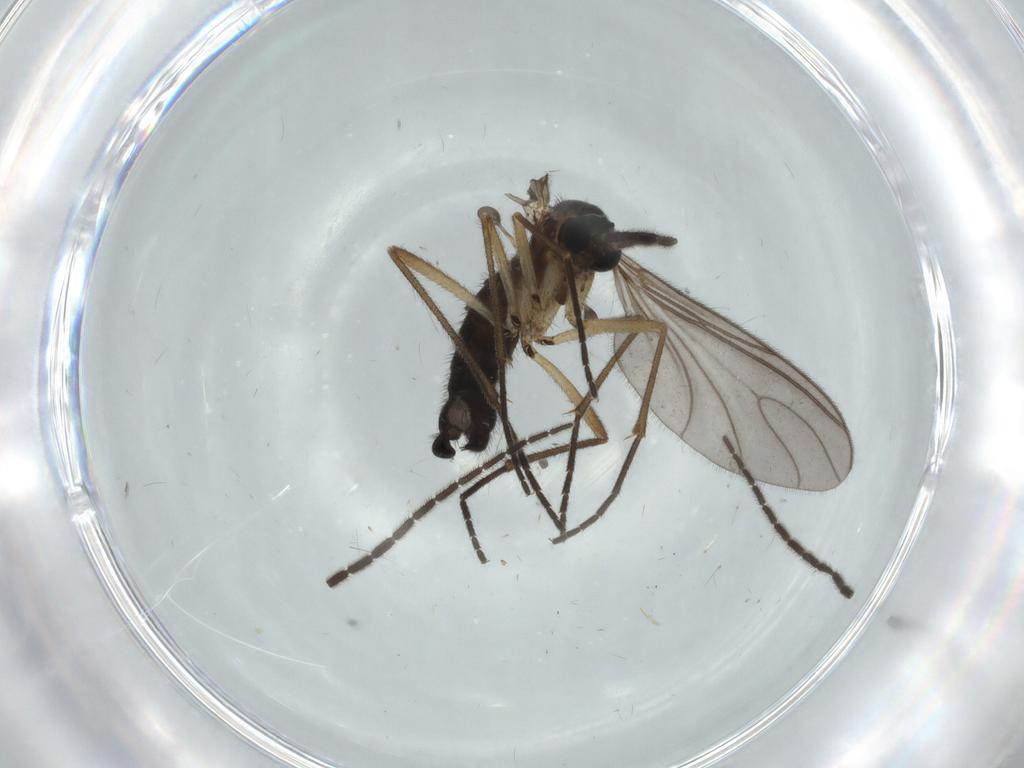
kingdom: Animalia
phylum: Arthropoda
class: Insecta
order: Diptera
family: Sciaridae
